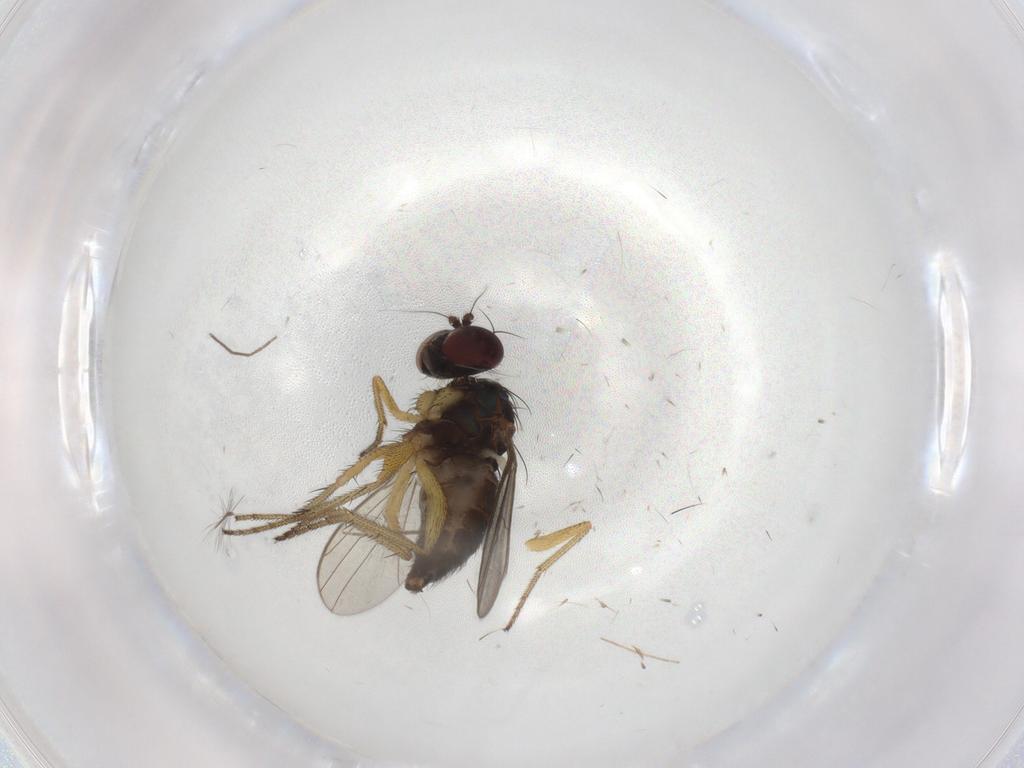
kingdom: Animalia
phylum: Arthropoda
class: Insecta
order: Diptera
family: Dolichopodidae
